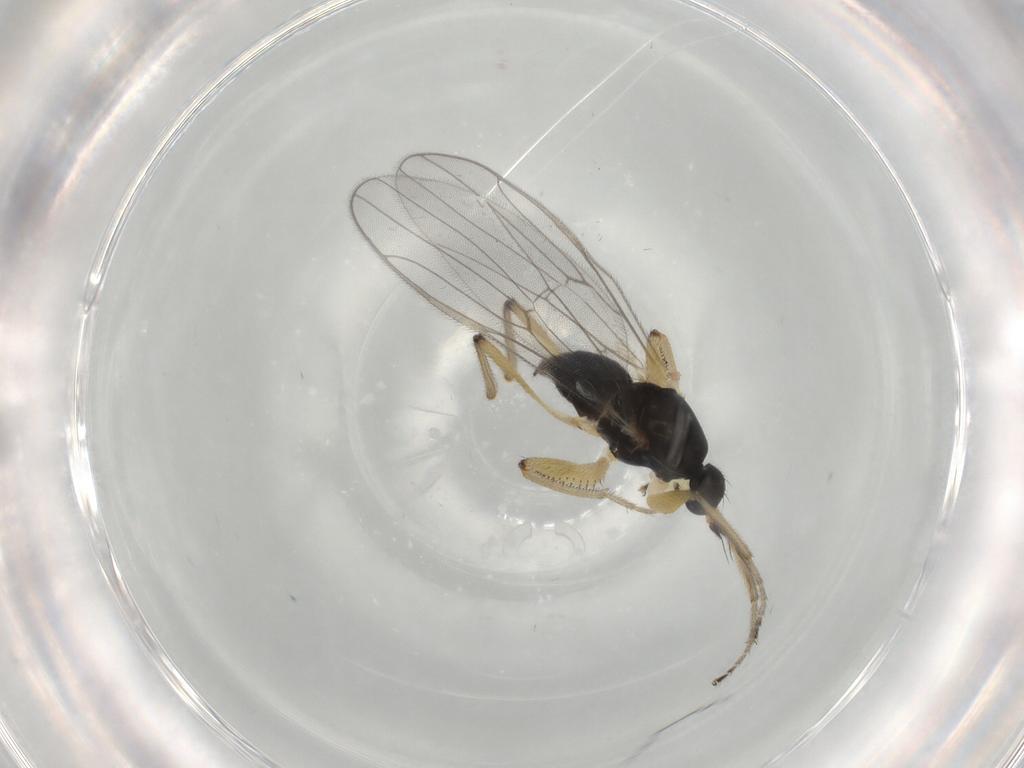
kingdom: Animalia
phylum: Arthropoda
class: Insecta
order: Diptera
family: Hybotidae
